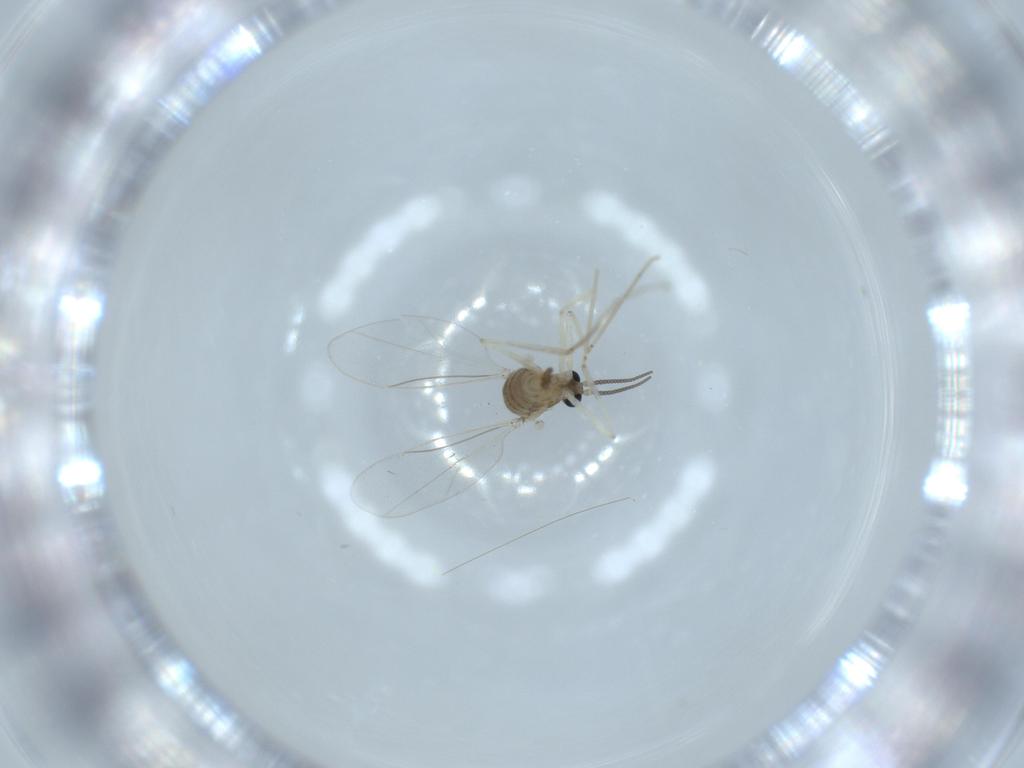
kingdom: Animalia
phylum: Arthropoda
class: Insecta
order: Diptera
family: Cecidomyiidae
